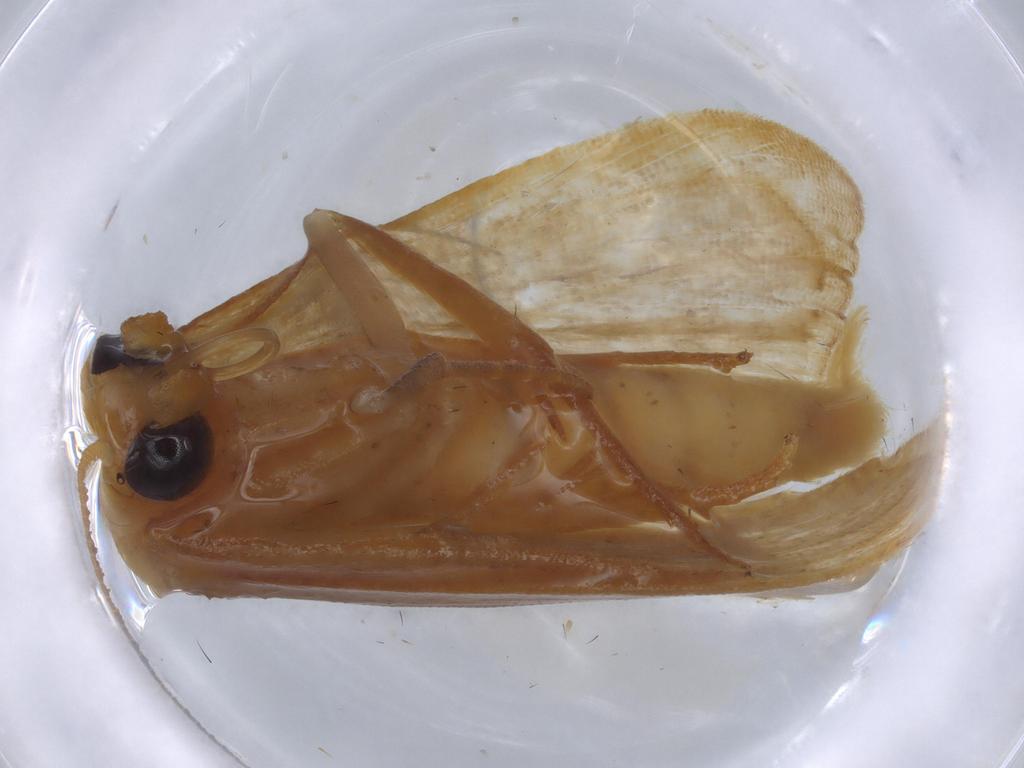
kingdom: Animalia
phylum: Arthropoda
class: Insecta
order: Lepidoptera
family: Erebidae
